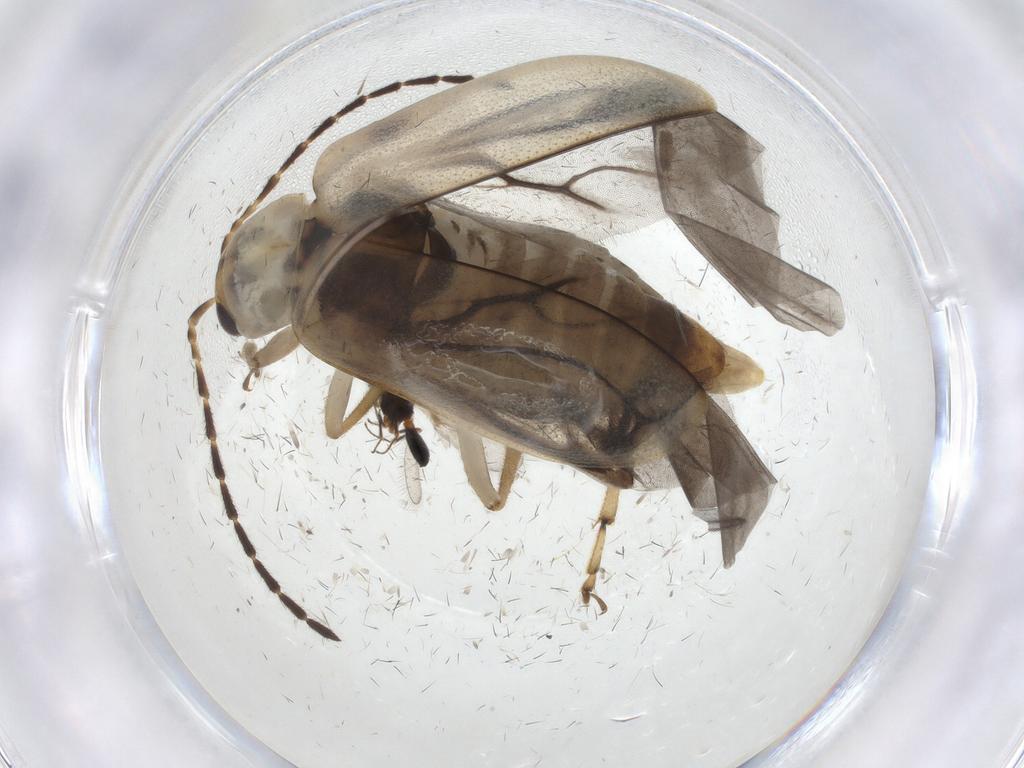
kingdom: Animalia
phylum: Arthropoda
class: Insecta
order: Coleoptera
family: Chrysomelidae
